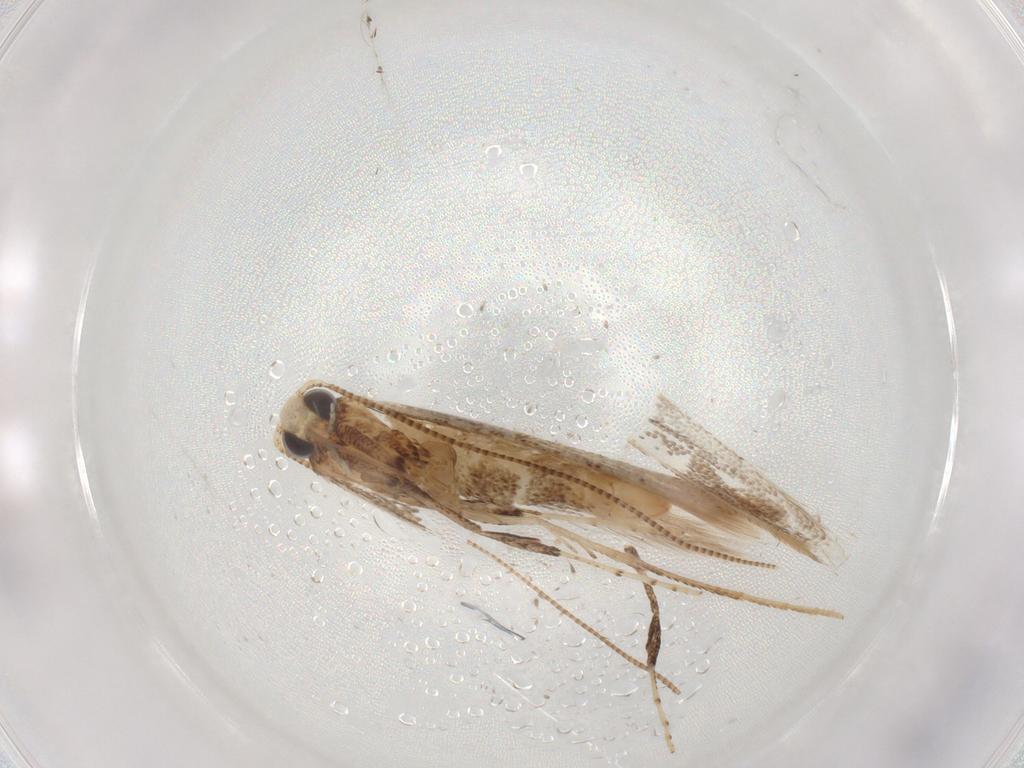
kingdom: Animalia
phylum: Arthropoda
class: Insecta
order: Lepidoptera
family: Gracillariidae
